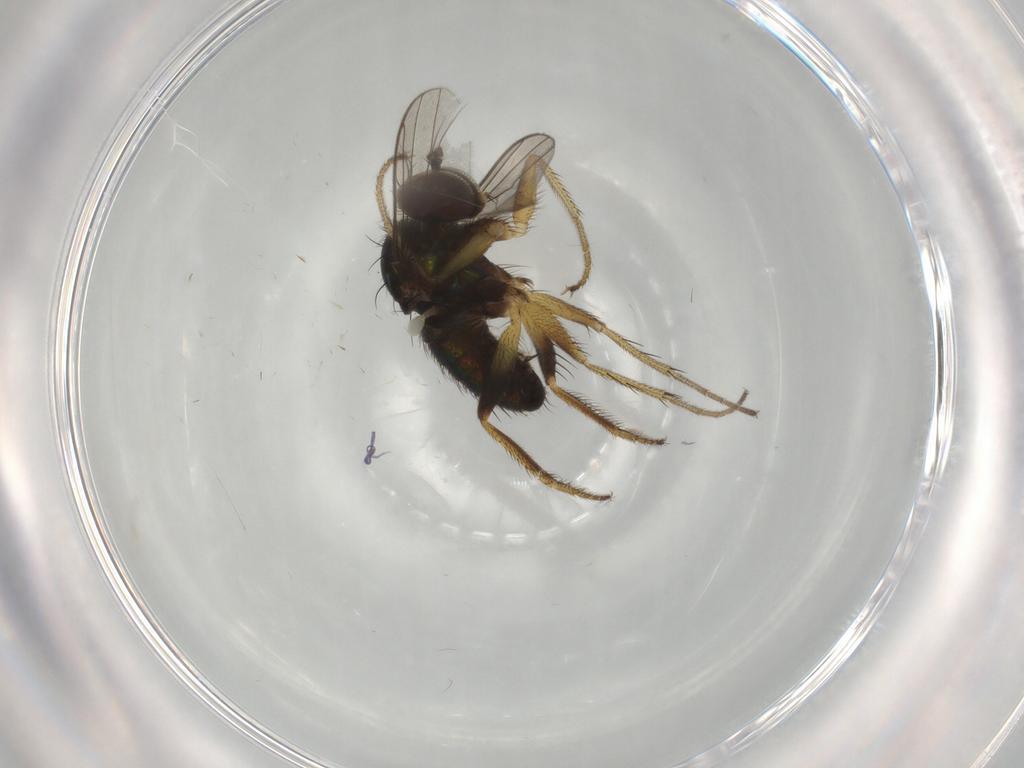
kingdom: Animalia
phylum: Arthropoda
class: Insecta
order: Diptera
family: Dolichopodidae
